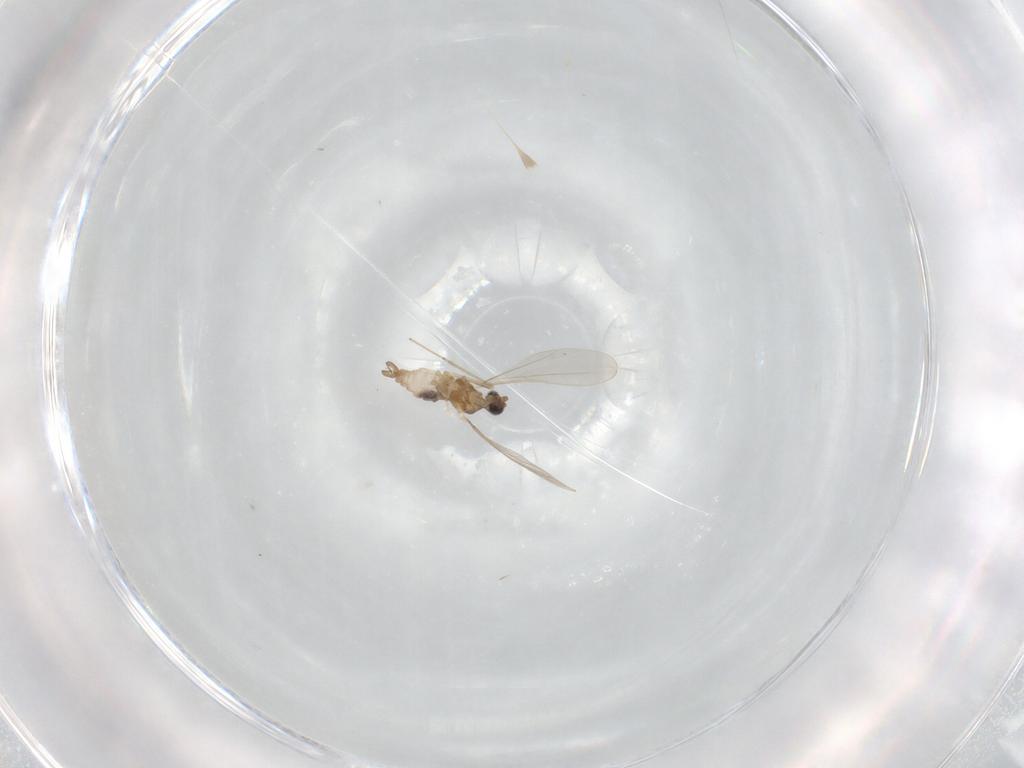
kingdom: Animalia
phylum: Arthropoda
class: Insecta
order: Diptera
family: Cecidomyiidae
